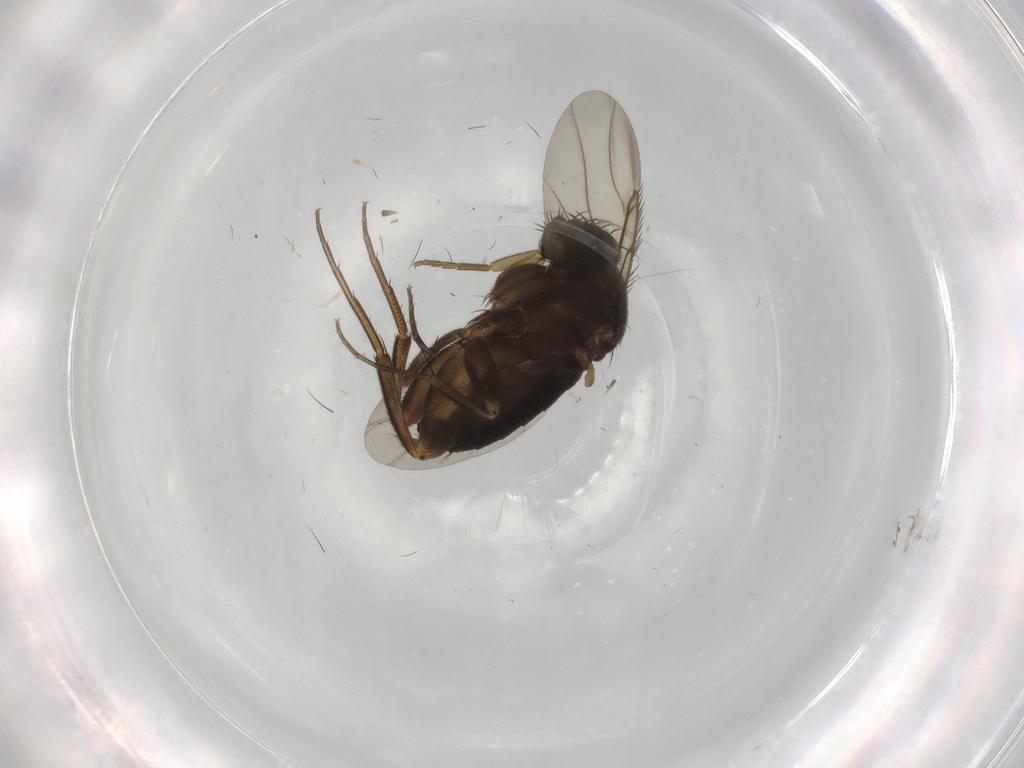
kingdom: Animalia
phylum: Arthropoda
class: Insecta
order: Diptera
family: Phoridae
